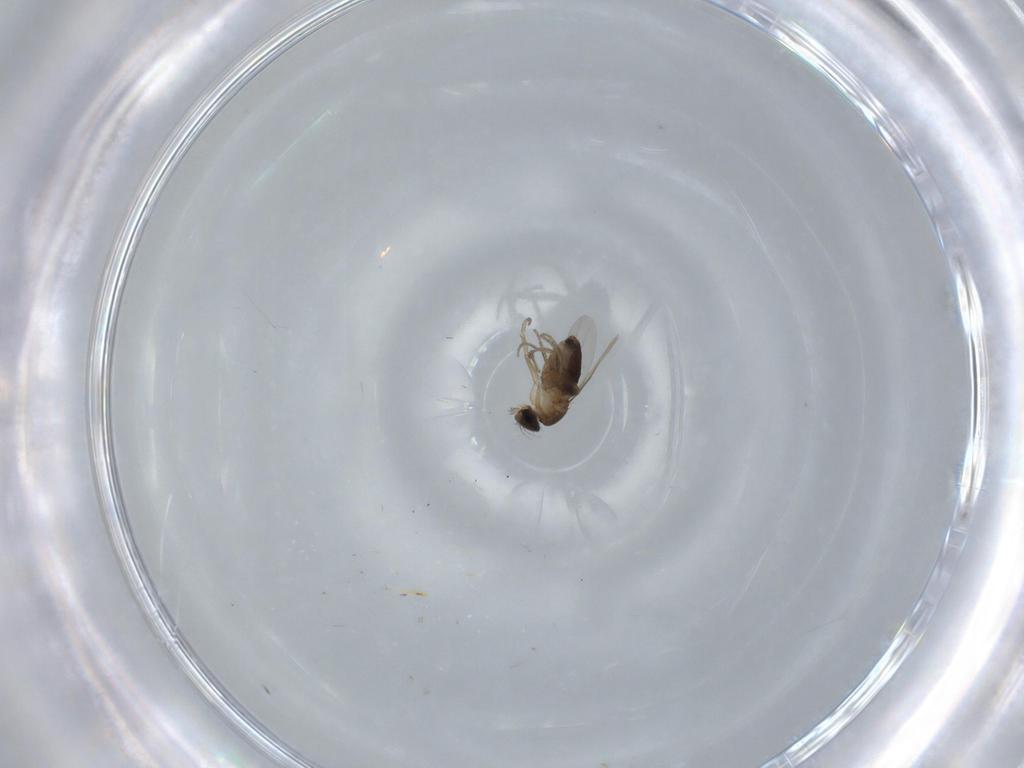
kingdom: Animalia
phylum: Arthropoda
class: Insecta
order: Diptera
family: Phoridae
